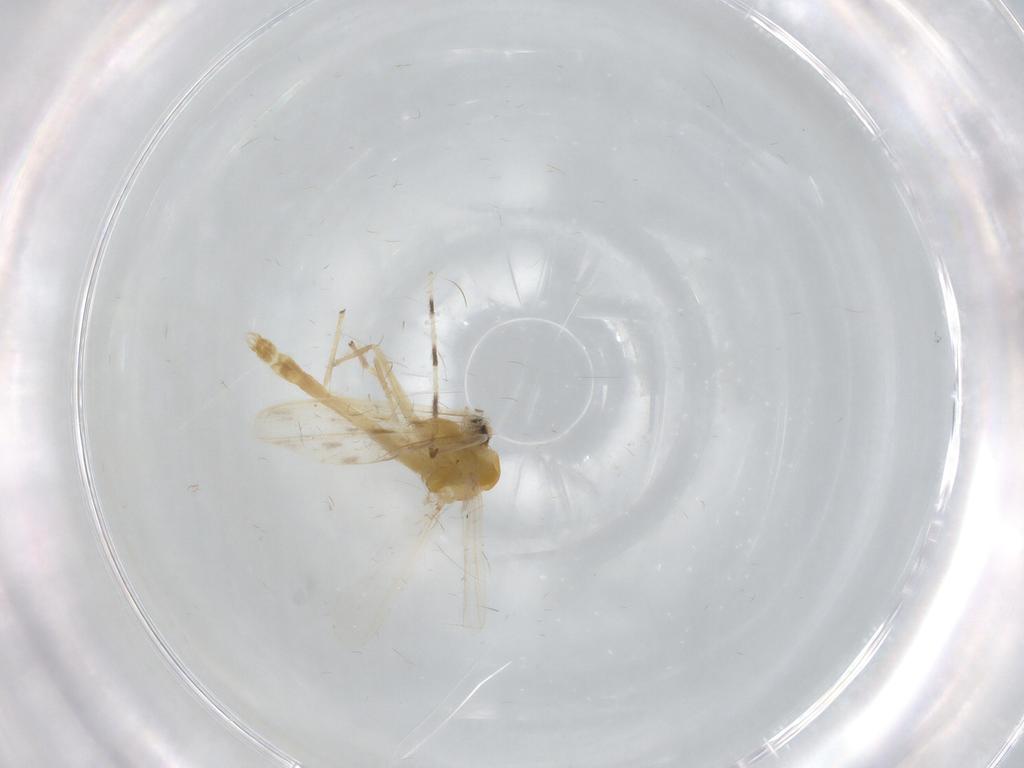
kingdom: Animalia
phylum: Arthropoda
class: Insecta
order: Diptera
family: Chironomidae
